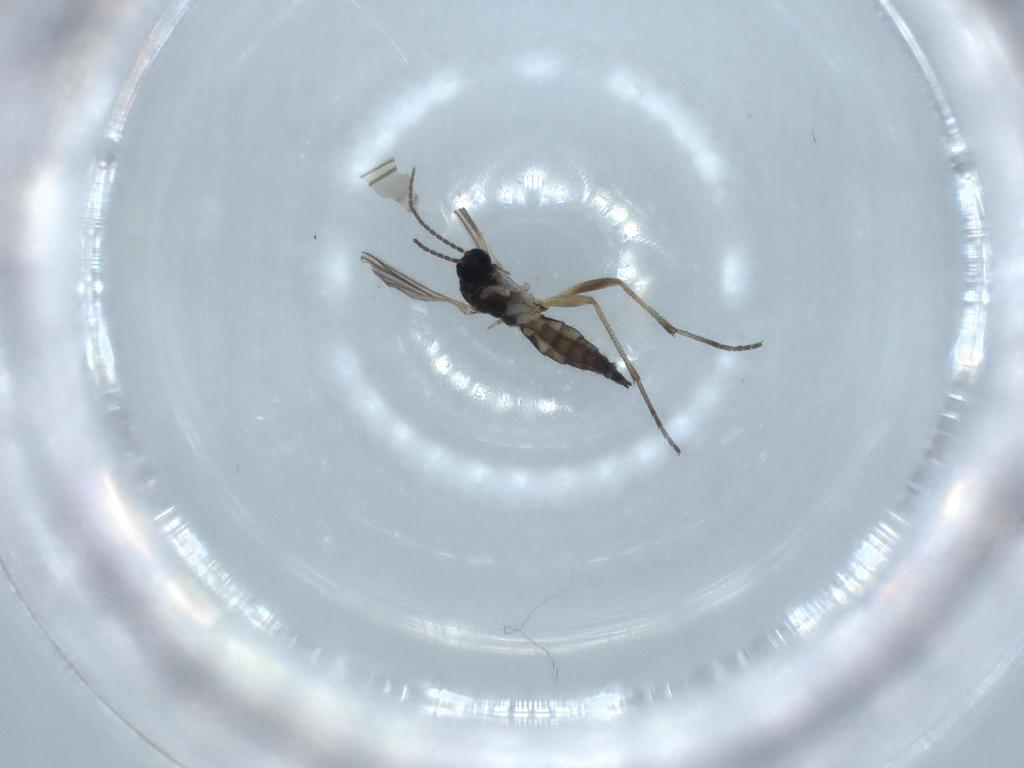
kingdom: Animalia
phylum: Arthropoda
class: Insecta
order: Diptera
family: Sciaridae
